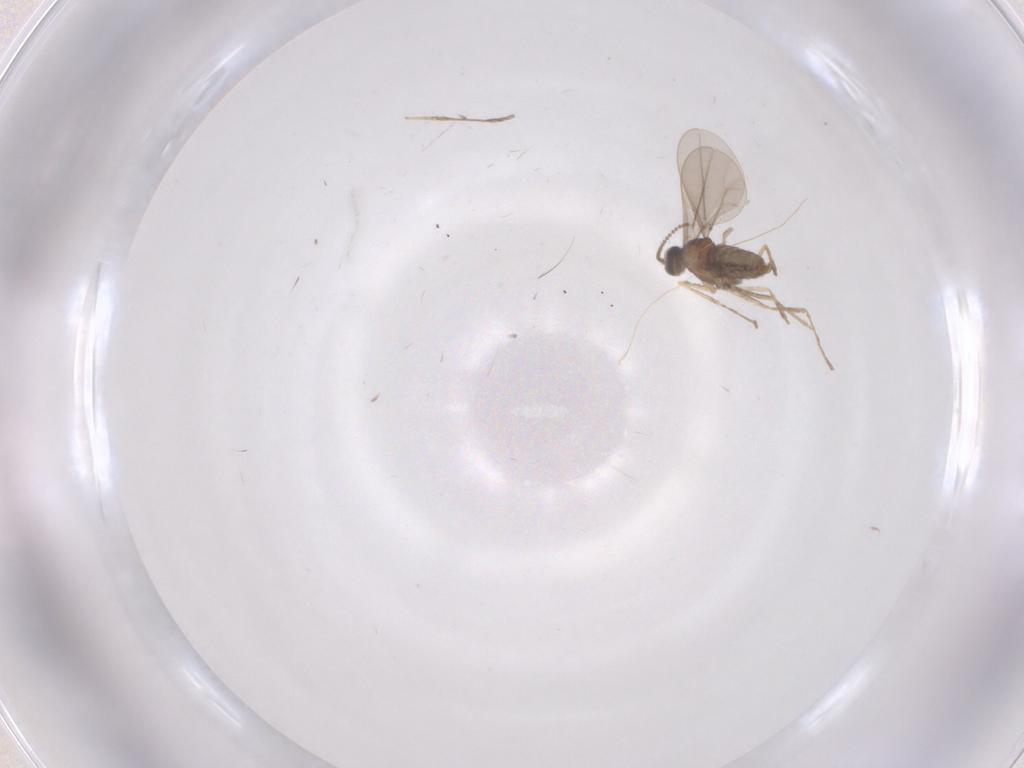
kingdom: Animalia
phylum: Arthropoda
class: Insecta
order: Diptera
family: Cecidomyiidae
